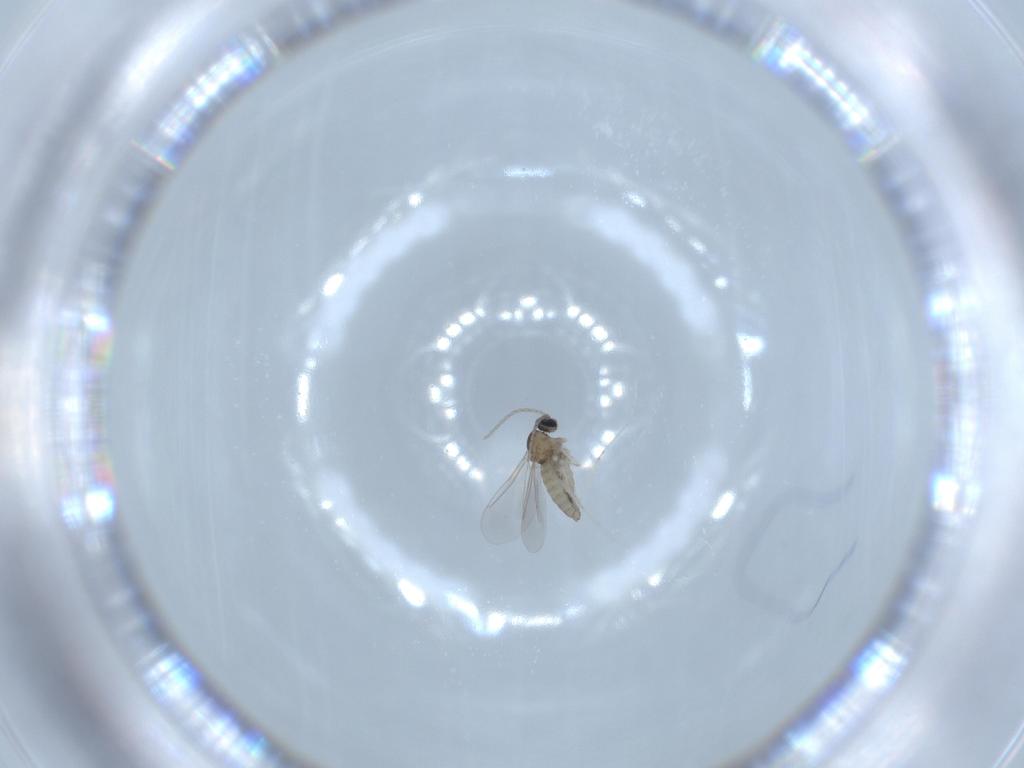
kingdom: Animalia
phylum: Arthropoda
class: Insecta
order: Diptera
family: Cecidomyiidae
